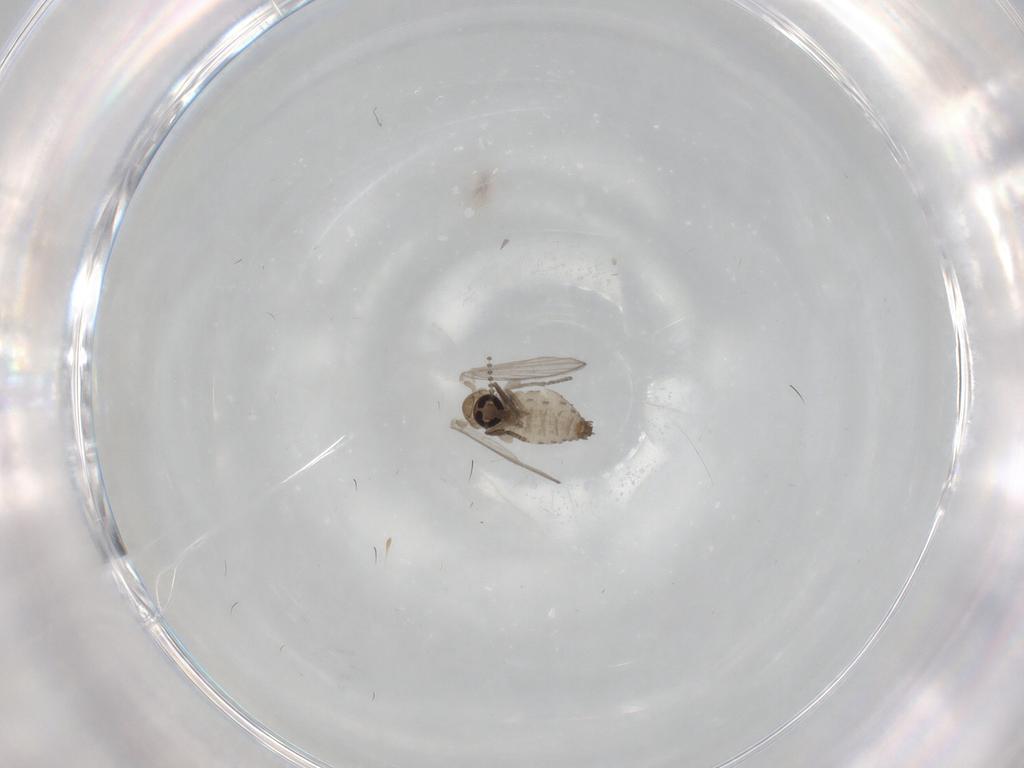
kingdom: Animalia
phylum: Arthropoda
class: Insecta
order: Diptera
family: Psychodidae
